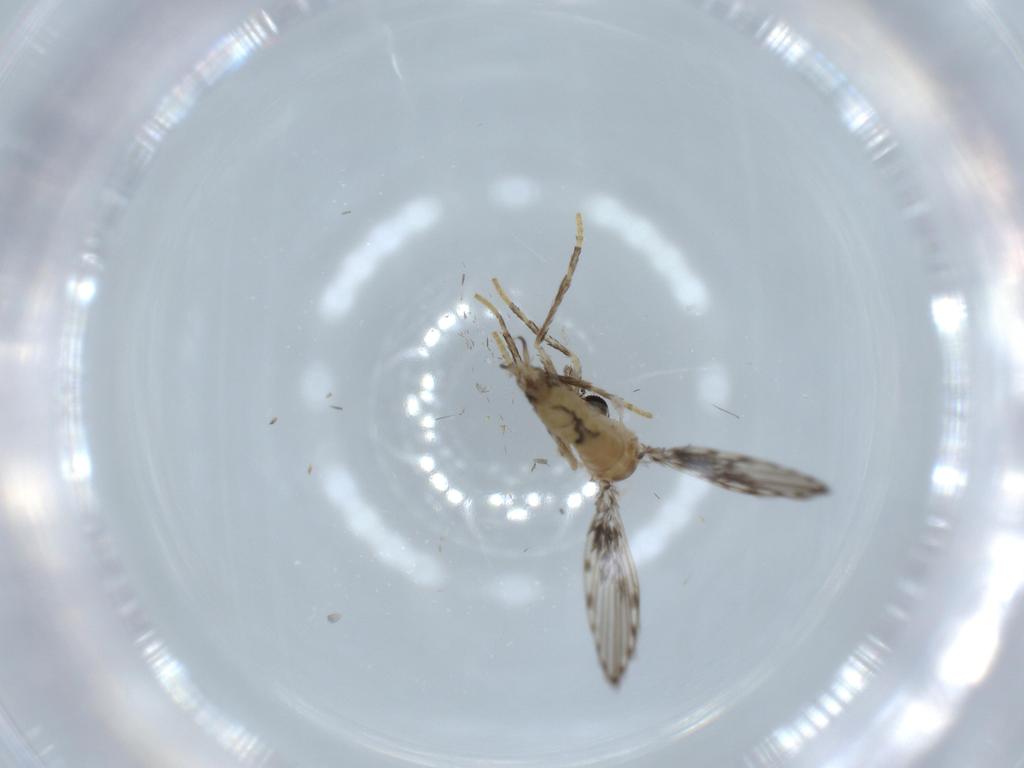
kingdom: Animalia
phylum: Arthropoda
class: Insecta
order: Diptera
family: Psychodidae
